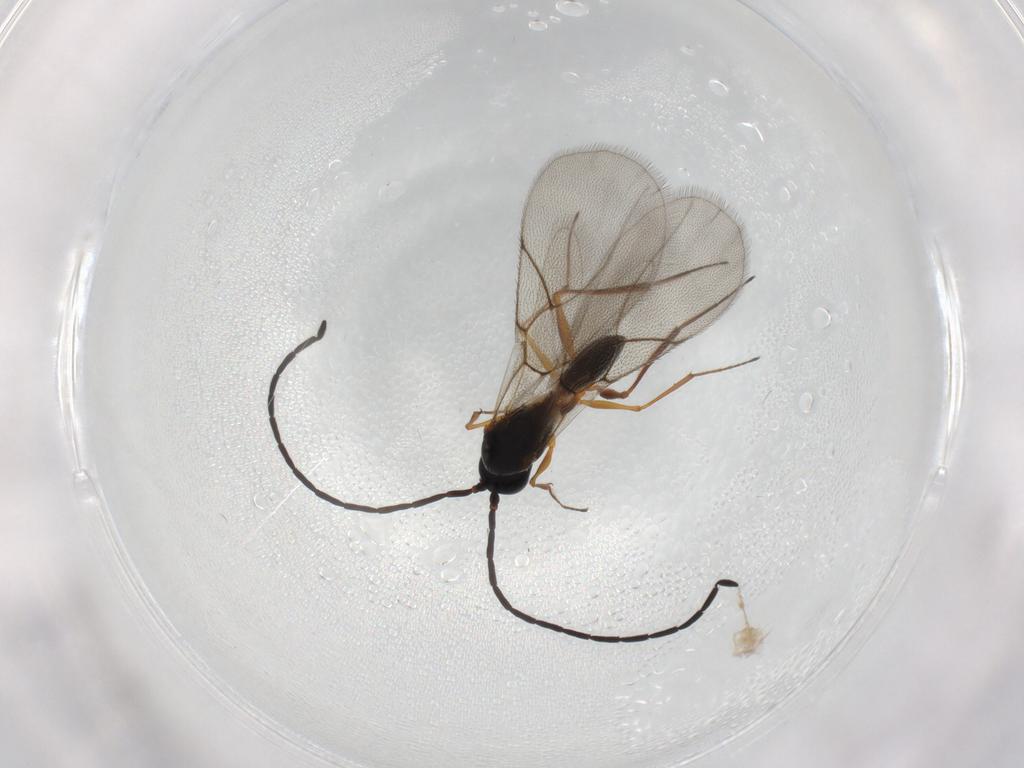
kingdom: Animalia
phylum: Arthropoda
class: Insecta
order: Hymenoptera
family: Figitidae
